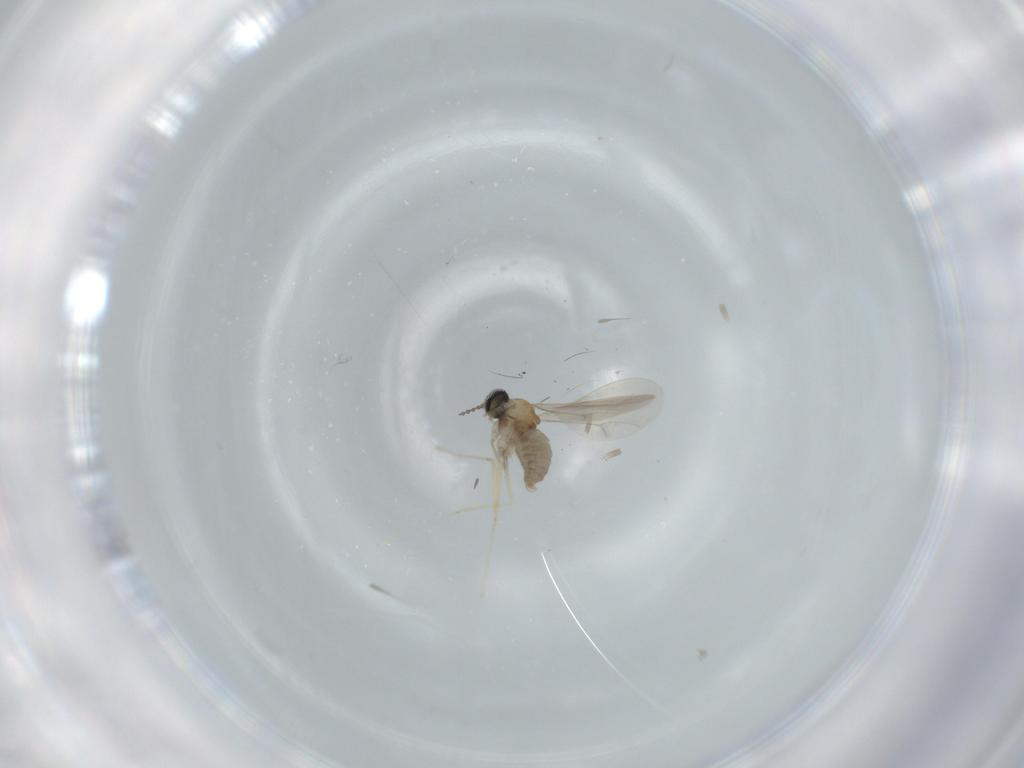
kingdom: Animalia
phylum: Arthropoda
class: Insecta
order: Diptera
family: Cecidomyiidae
